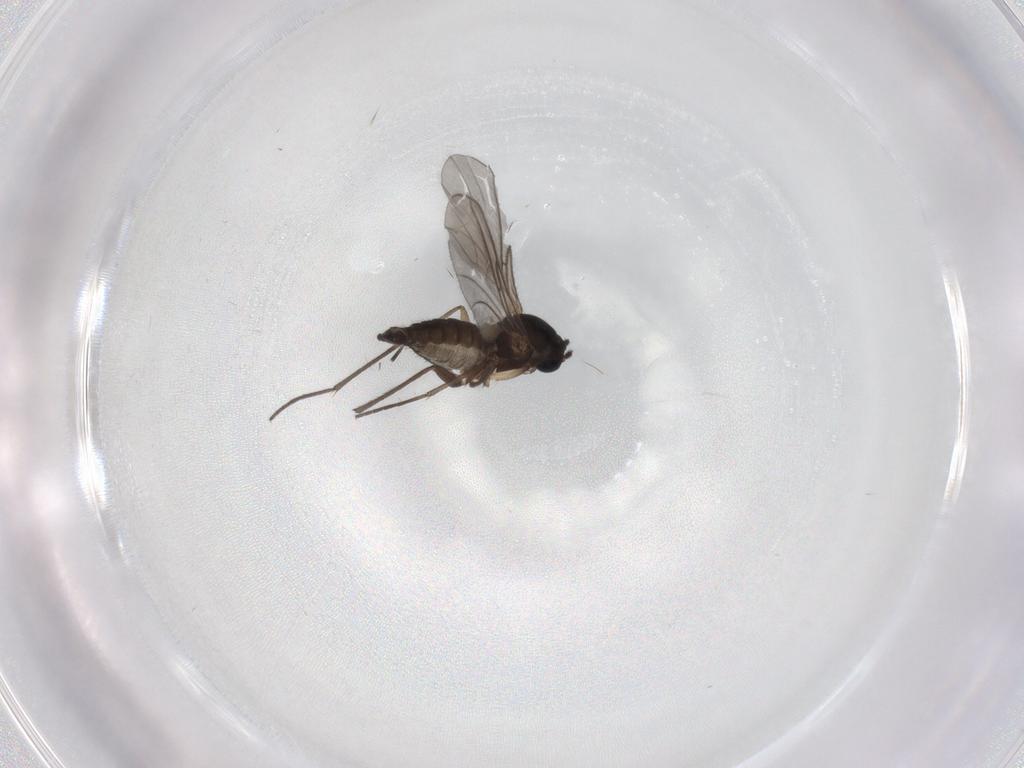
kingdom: Animalia
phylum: Arthropoda
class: Insecta
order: Diptera
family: Sciaridae
